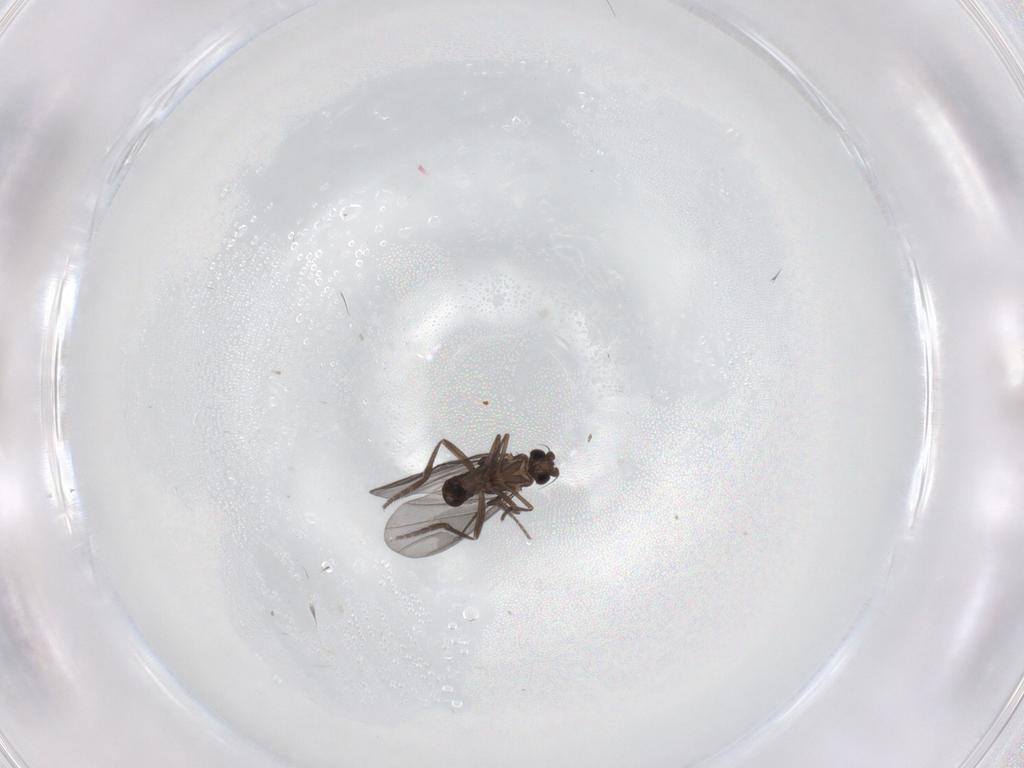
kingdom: Animalia
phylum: Arthropoda
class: Insecta
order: Diptera
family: Phoridae
